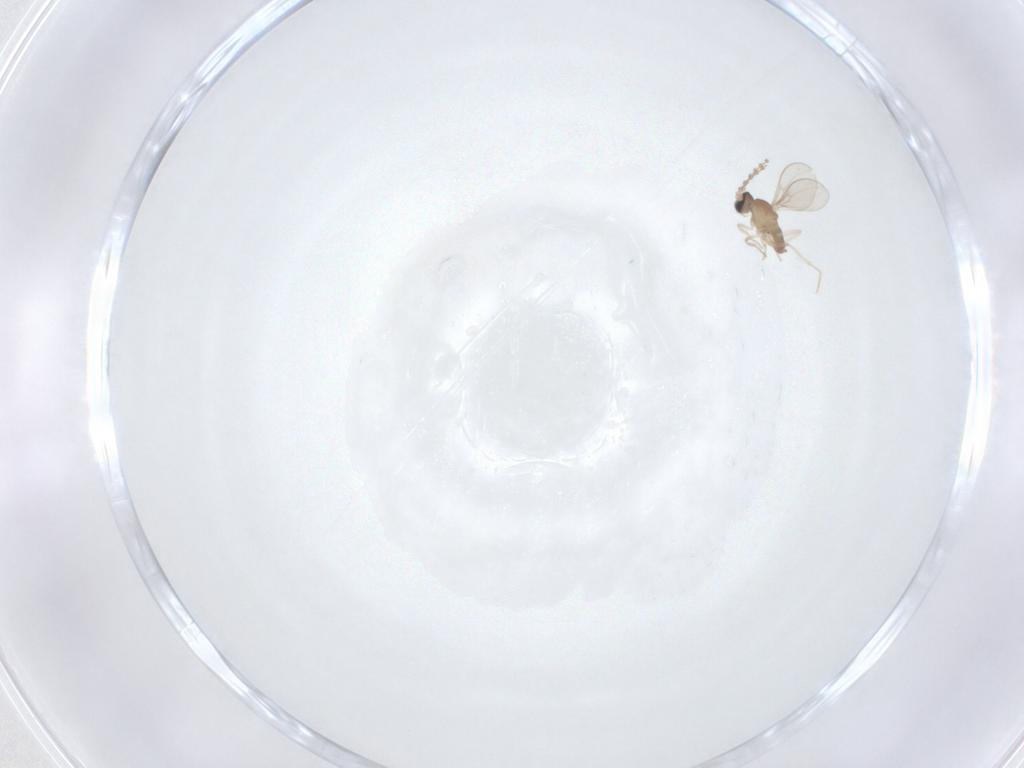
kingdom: Animalia
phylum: Arthropoda
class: Insecta
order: Diptera
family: Cecidomyiidae
